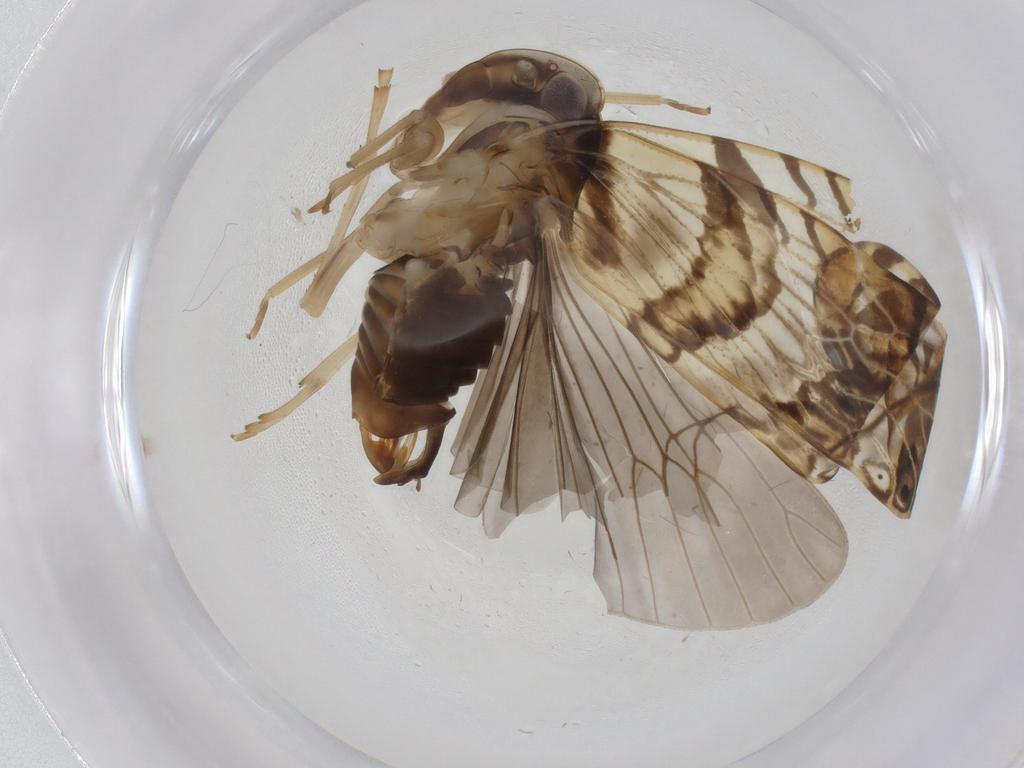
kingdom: Animalia
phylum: Arthropoda
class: Insecta
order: Hemiptera
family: Cixiidae
